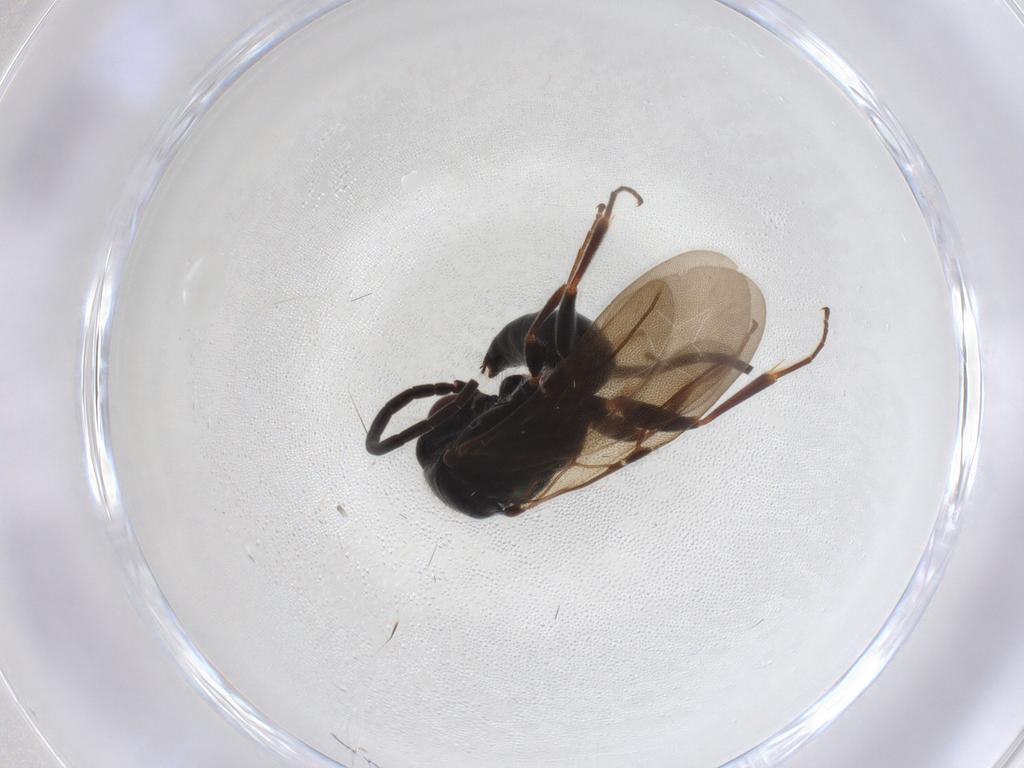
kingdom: Animalia
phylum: Arthropoda
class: Insecta
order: Hymenoptera
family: Bethylidae
